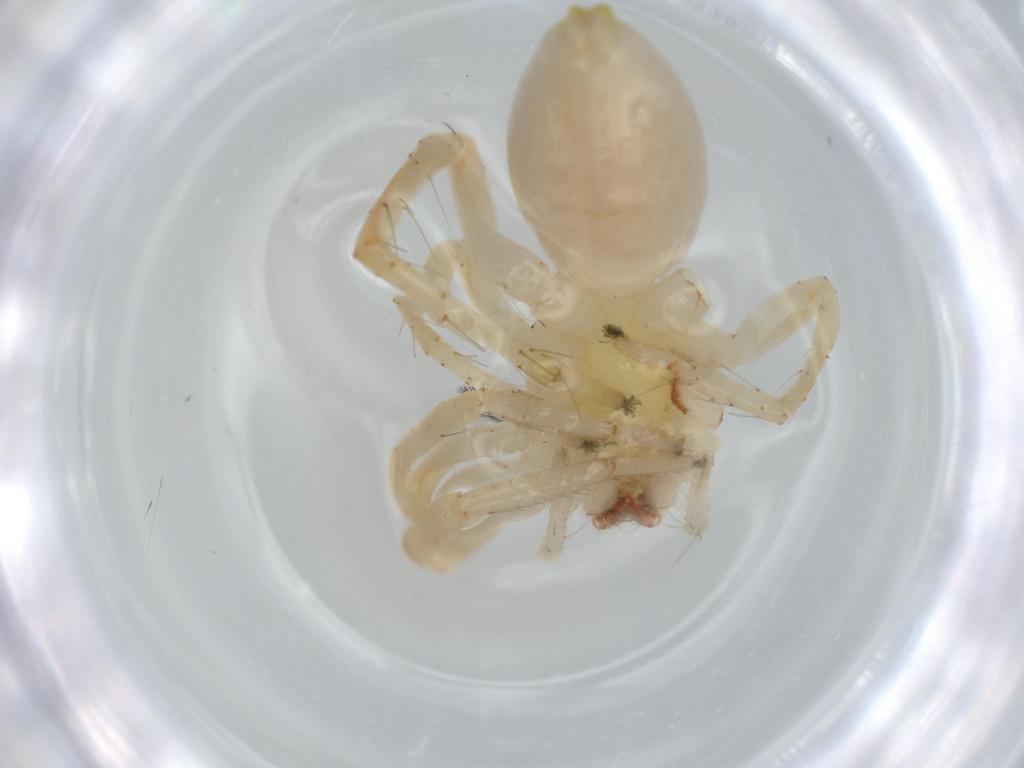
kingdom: Animalia
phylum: Arthropoda
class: Arachnida
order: Araneae
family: Anyphaenidae
